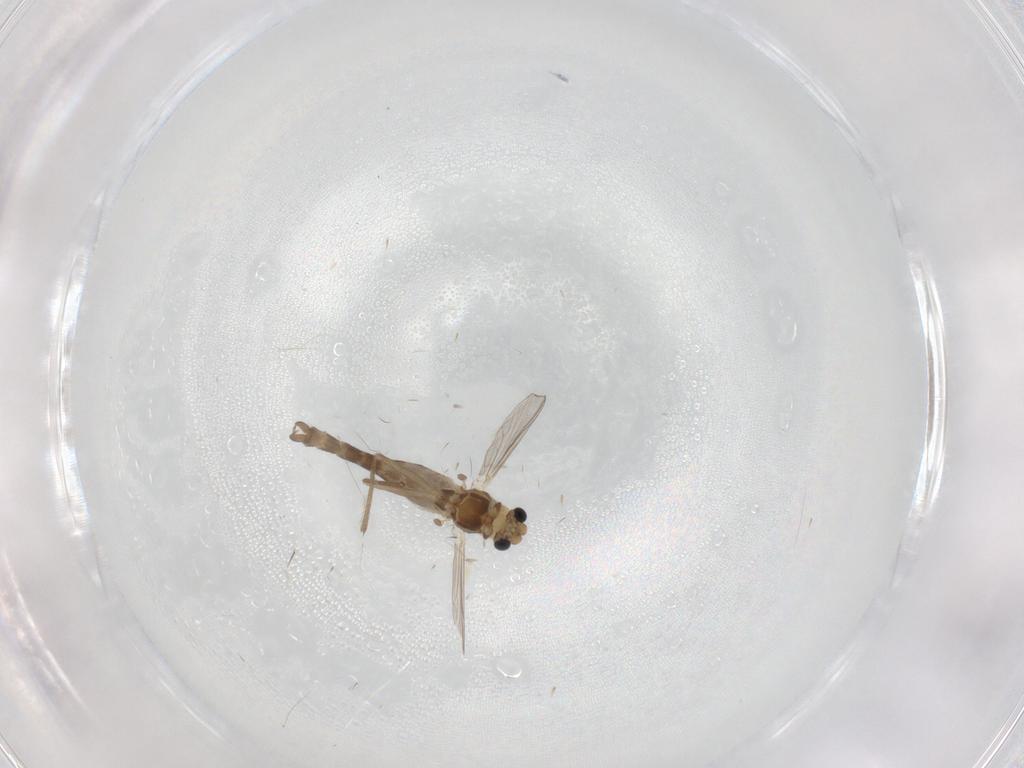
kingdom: Animalia
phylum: Arthropoda
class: Insecta
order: Diptera
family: Chironomidae
